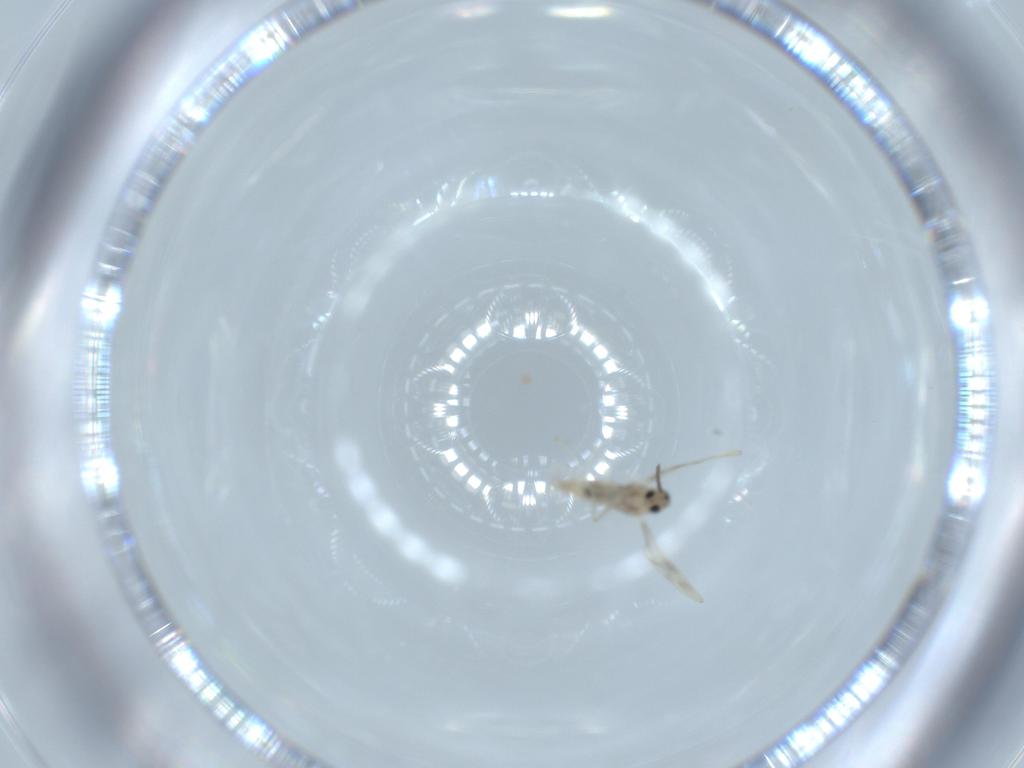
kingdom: Animalia
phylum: Arthropoda
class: Insecta
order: Diptera
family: Cecidomyiidae
